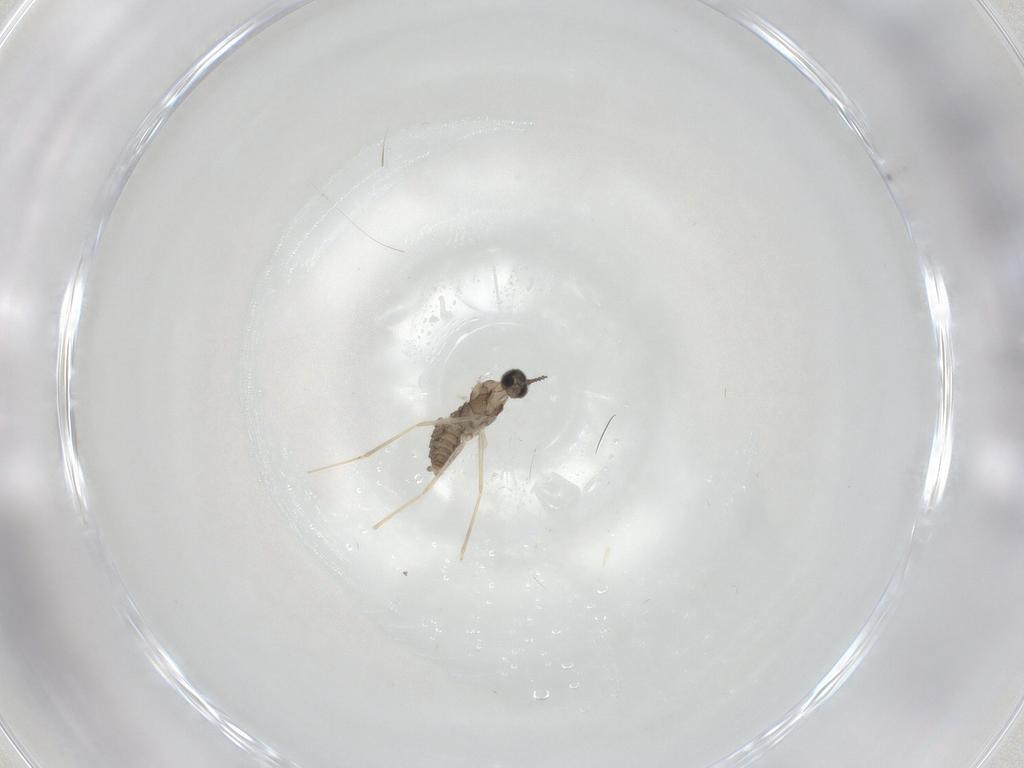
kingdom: Animalia
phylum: Arthropoda
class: Insecta
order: Diptera
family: Cecidomyiidae
